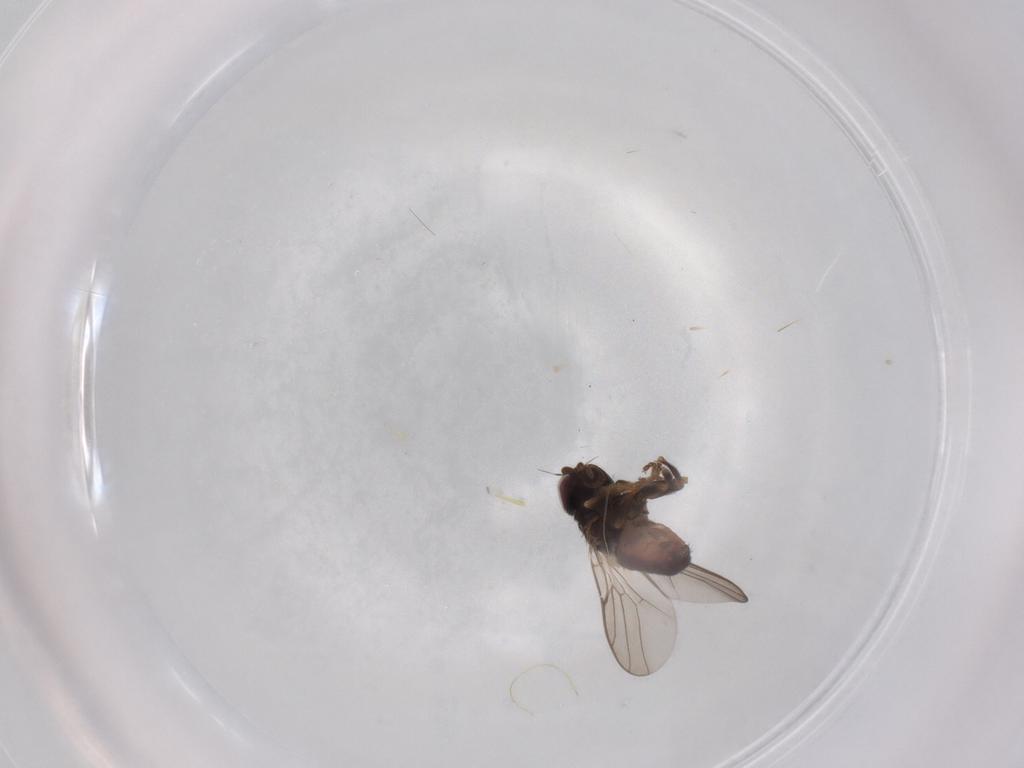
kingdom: Animalia
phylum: Arthropoda
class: Insecta
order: Diptera
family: Chloropidae
